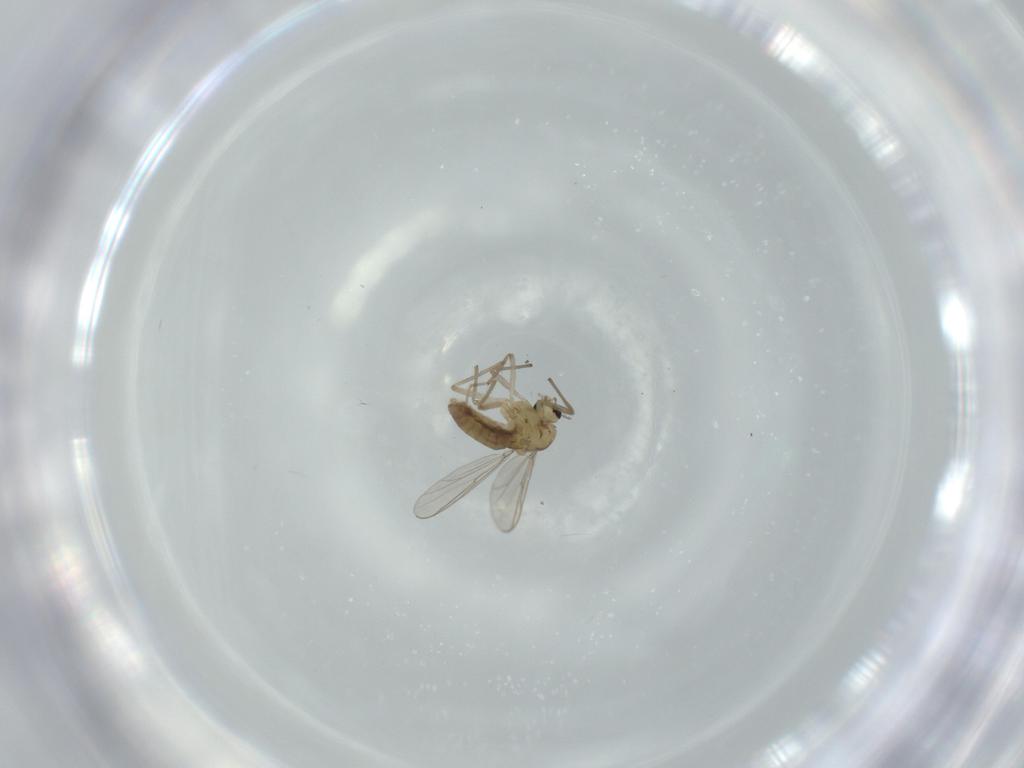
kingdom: Animalia
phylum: Arthropoda
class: Insecta
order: Diptera
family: Chironomidae
